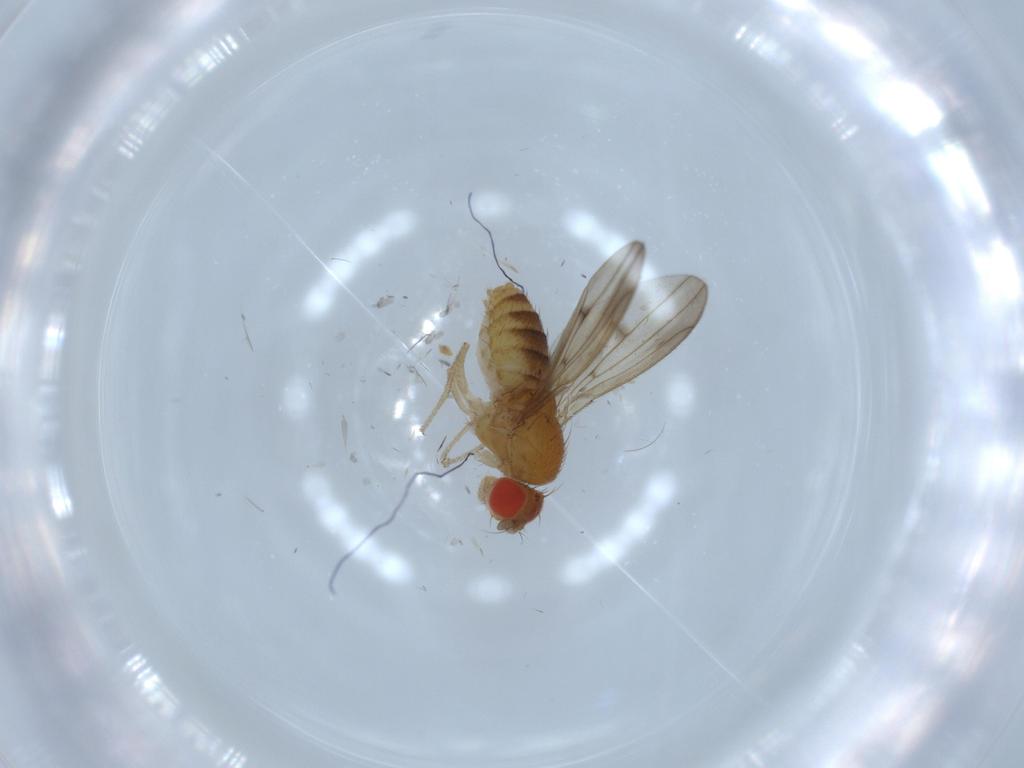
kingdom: Animalia
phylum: Arthropoda
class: Insecta
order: Diptera
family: Drosophilidae
